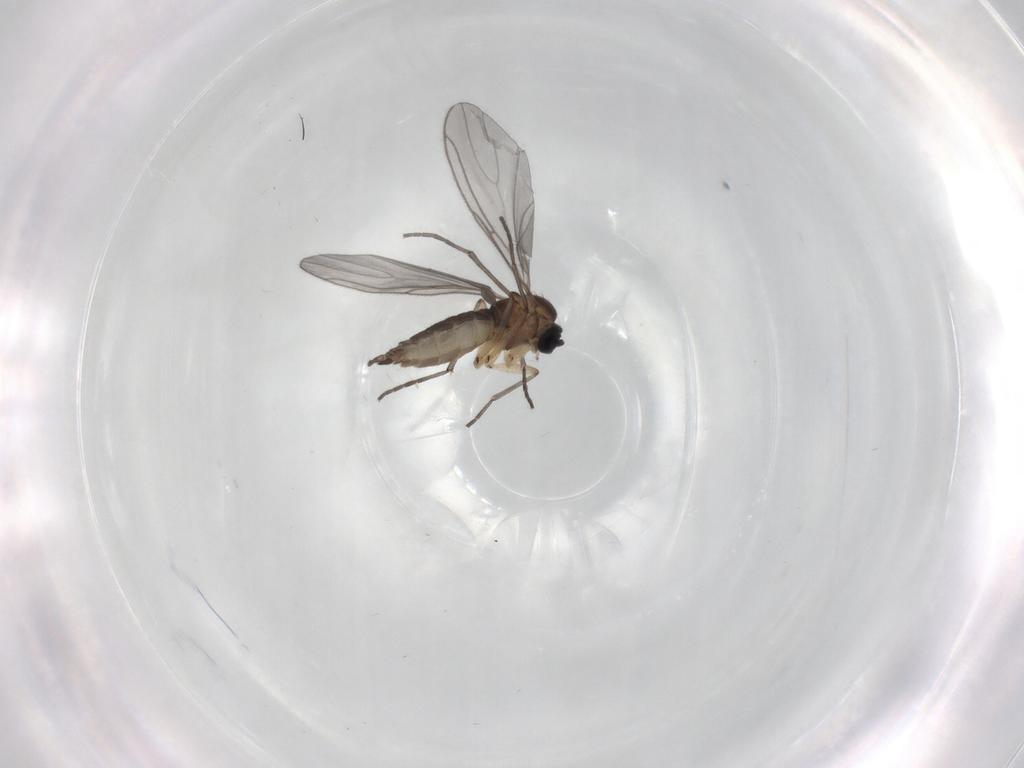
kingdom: Animalia
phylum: Arthropoda
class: Insecta
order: Diptera
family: Sciaridae
